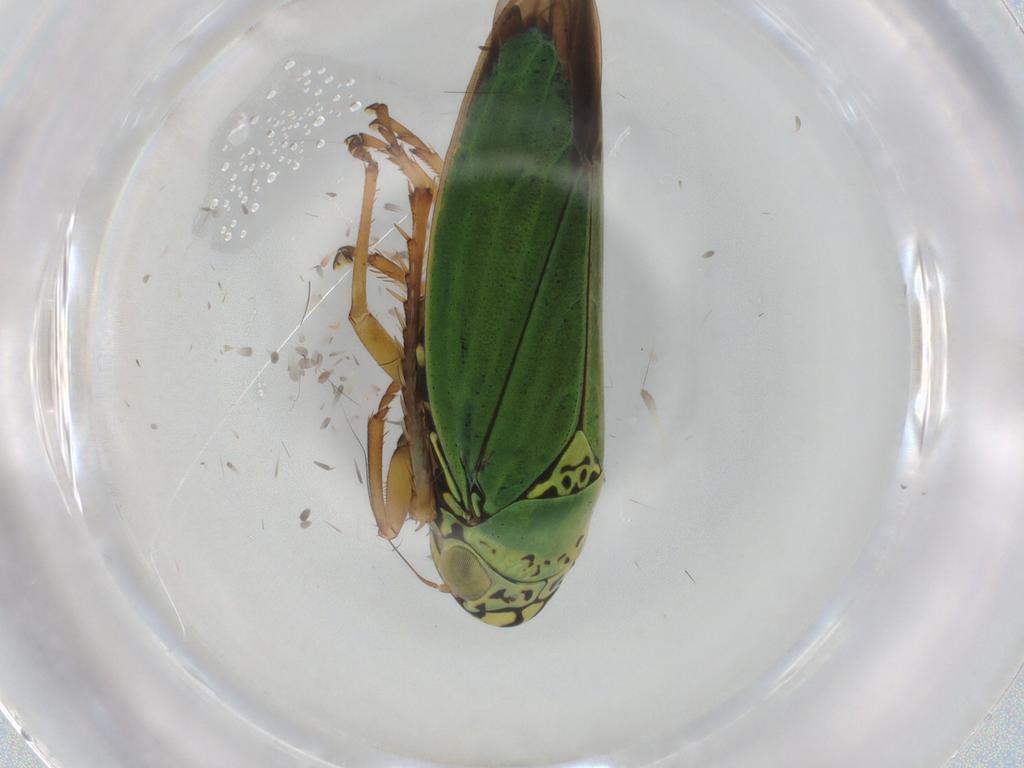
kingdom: Animalia
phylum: Arthropoda
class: Insecta
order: Hemiptera
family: Cicadellidae
